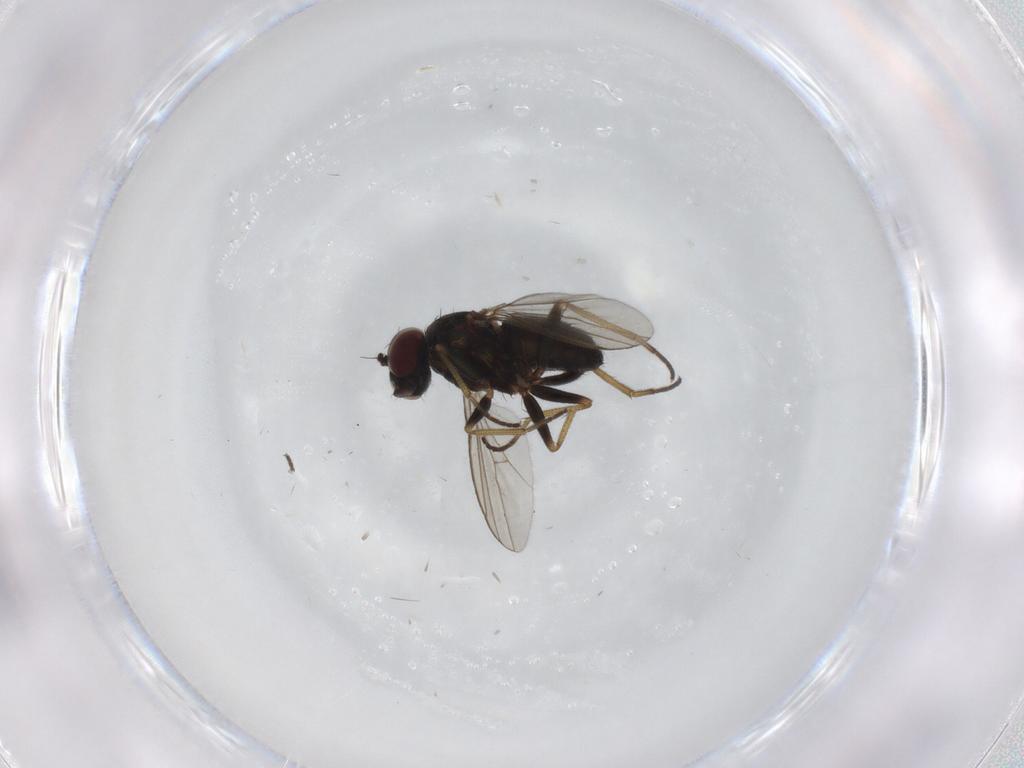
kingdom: Animalia
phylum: Arthropoda
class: Insecta
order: Diptera
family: Dolichopodidae
